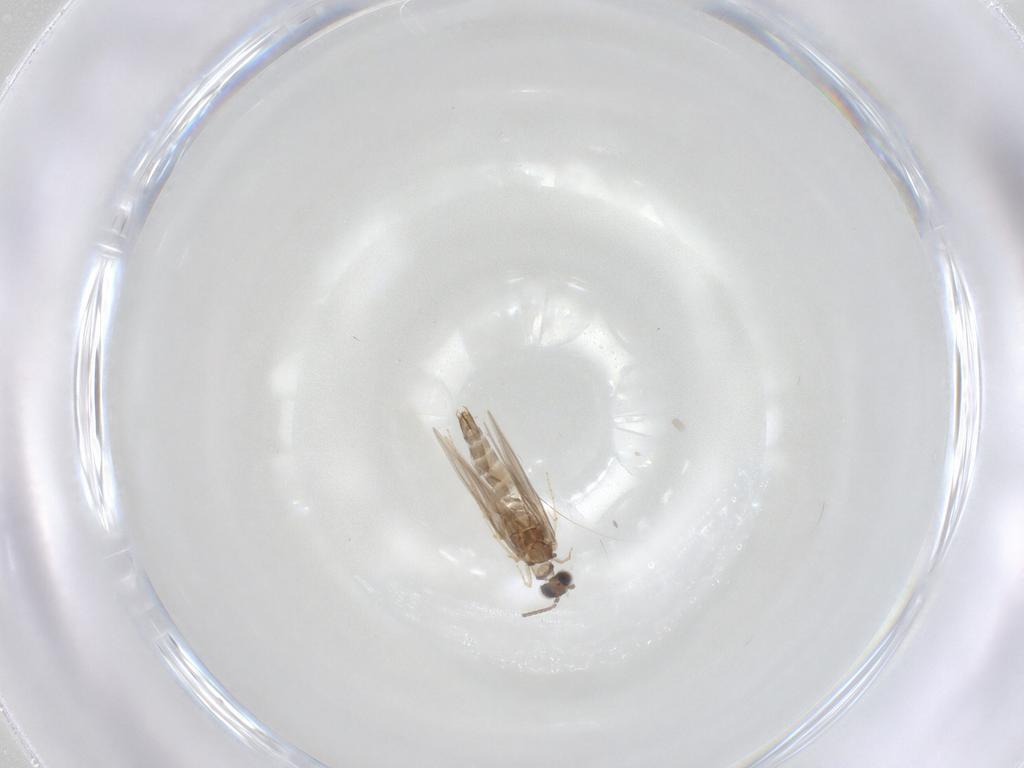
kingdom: Animalia
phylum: Arthropoda
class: Insecta
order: Trichoptera
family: Hydroptilidae
